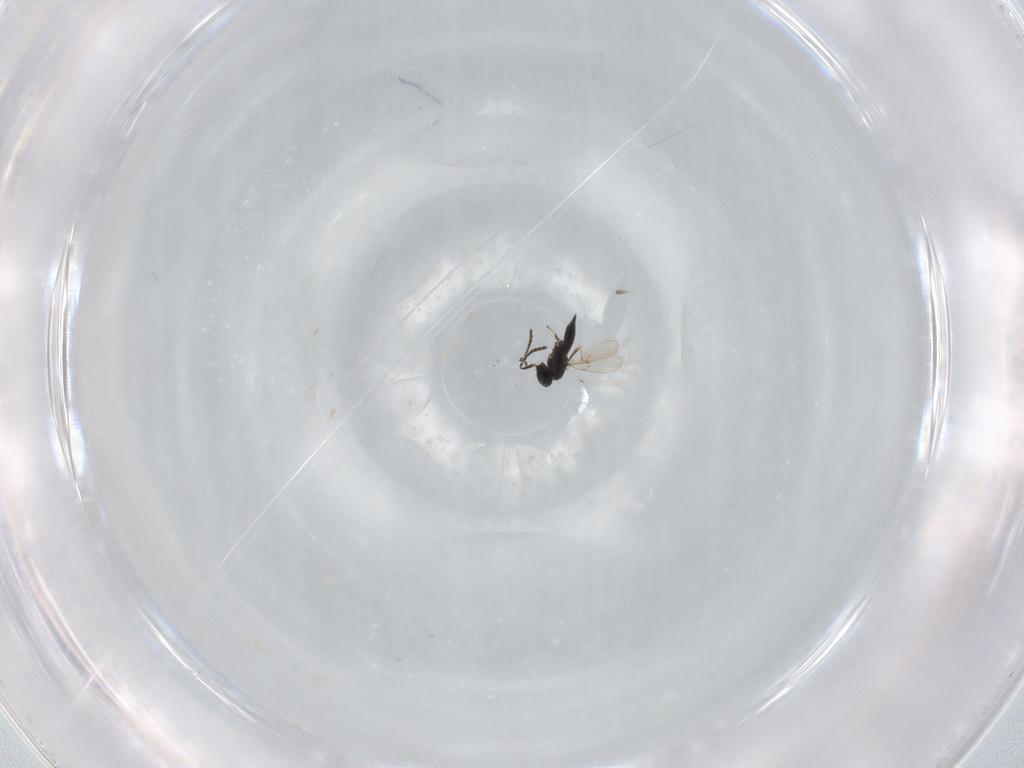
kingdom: Animalia
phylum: Arthropoda
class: Insecta
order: Hymenoptera
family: Scelionidae
